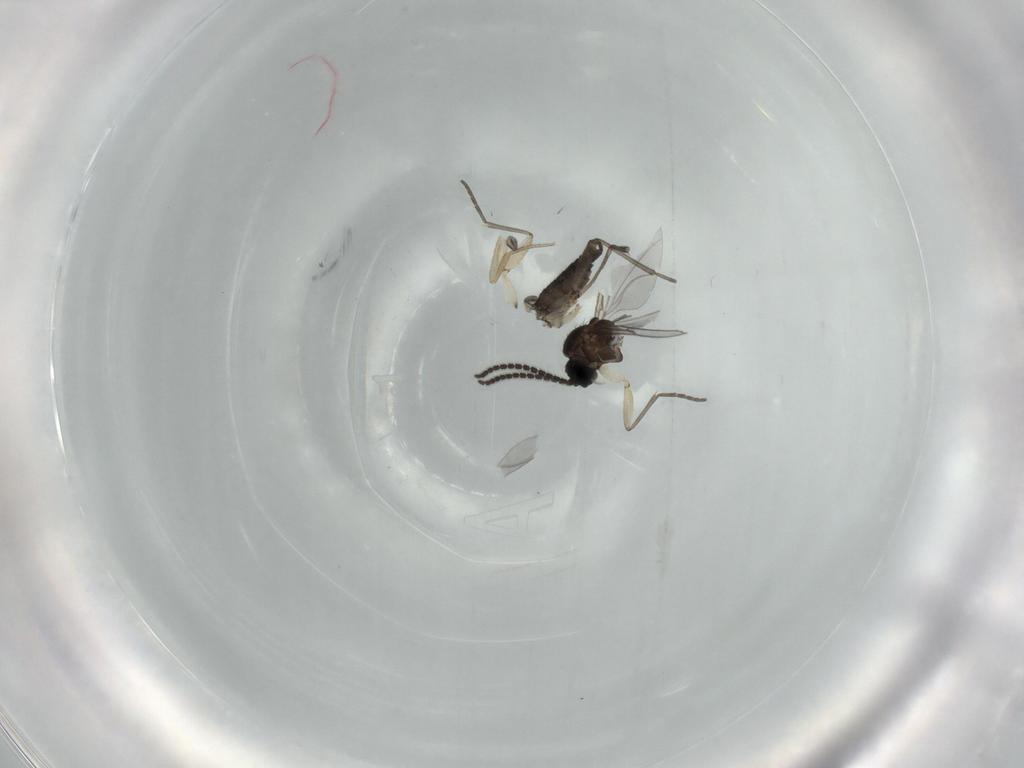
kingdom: Animalia
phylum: Arthropoda
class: Insecta
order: Diptera
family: Sciaridae
